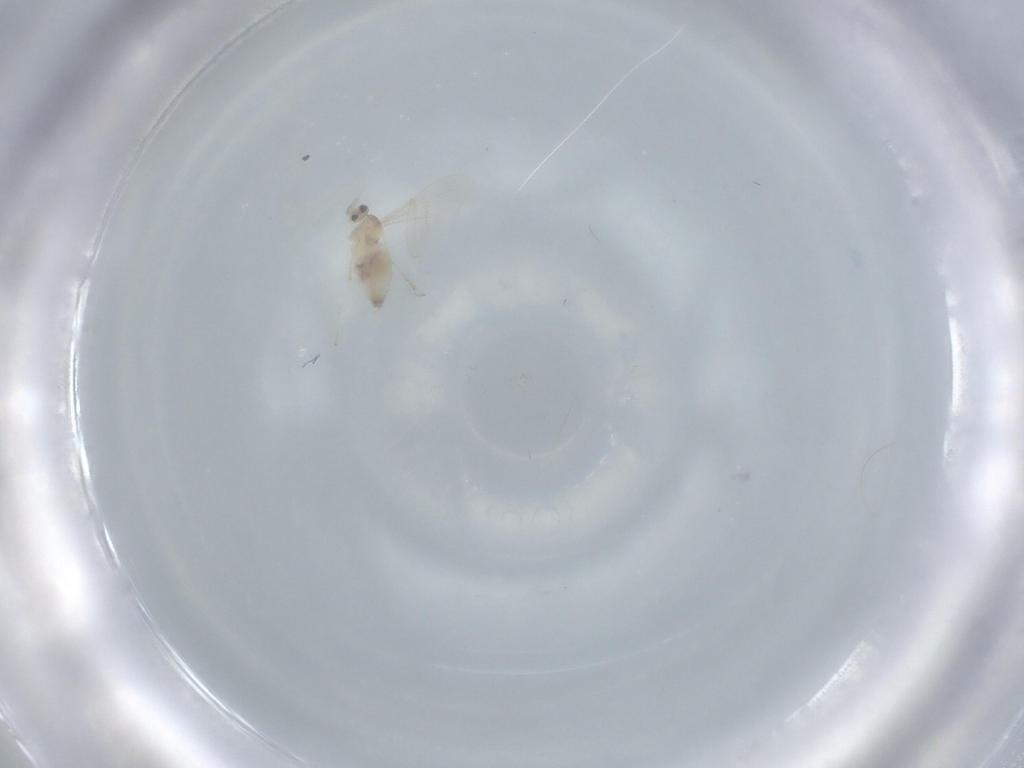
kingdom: Animalia
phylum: Arthropoda
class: Insecta
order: Diptera
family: Cecidomyiidae
